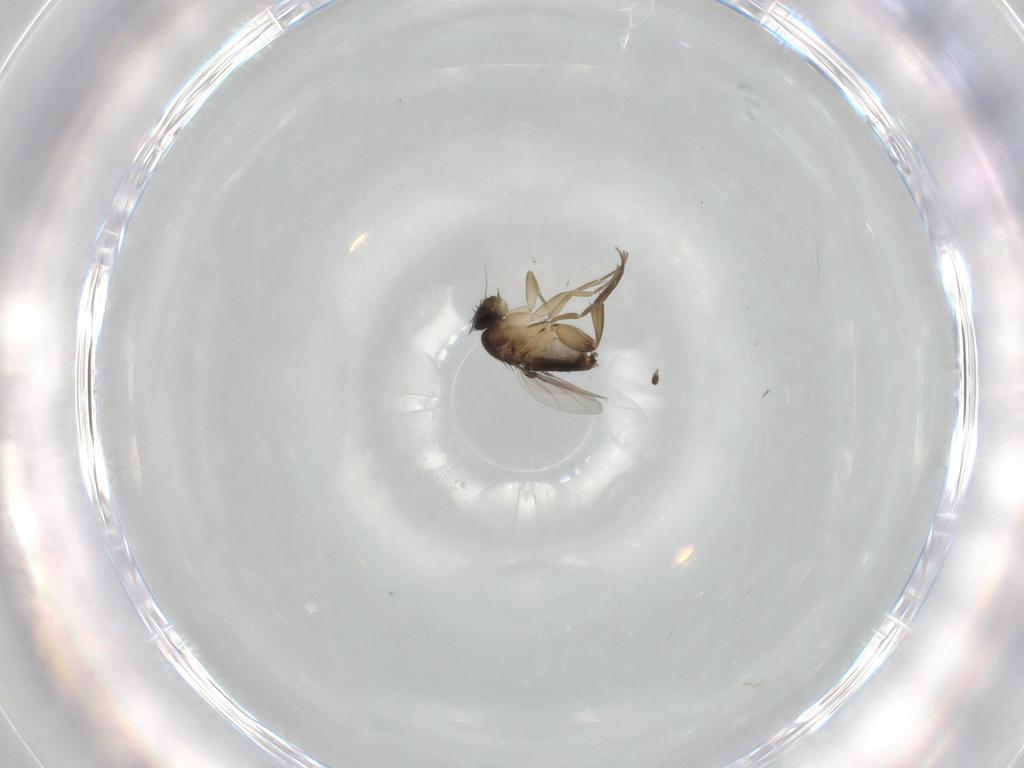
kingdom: Animalia
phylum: Arthropoda
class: Insecta
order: Diptera
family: Phoridae
